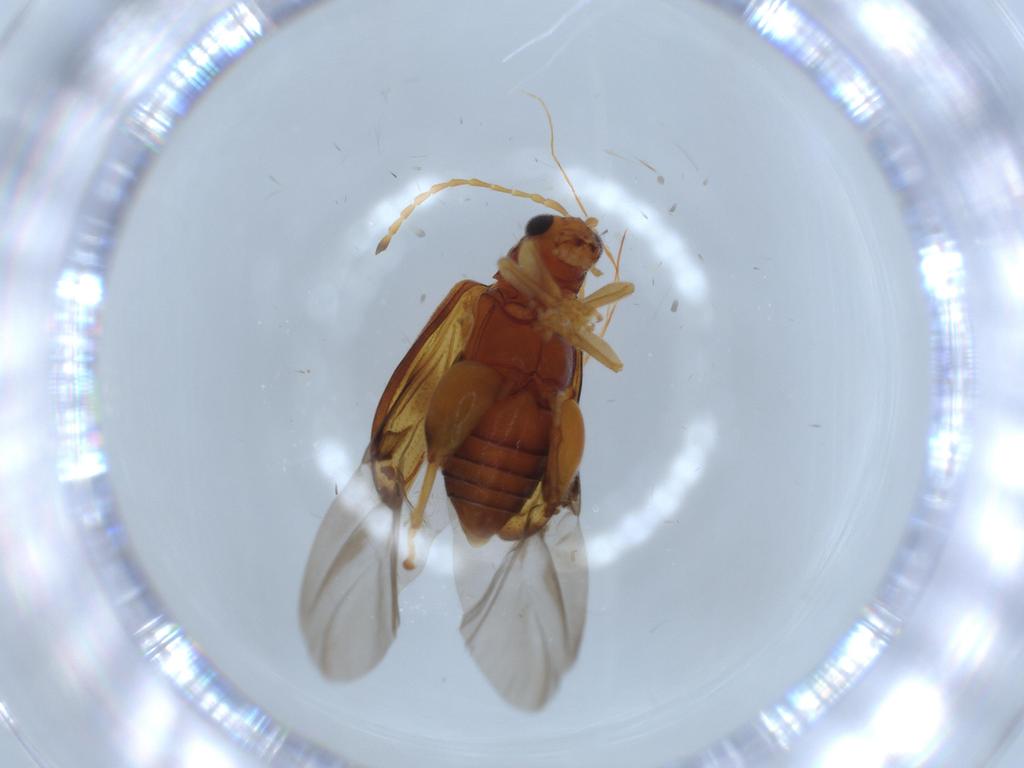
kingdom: Animalia
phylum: Arthropoda
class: Insecta
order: Coleoptera
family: Chrysomelidae
